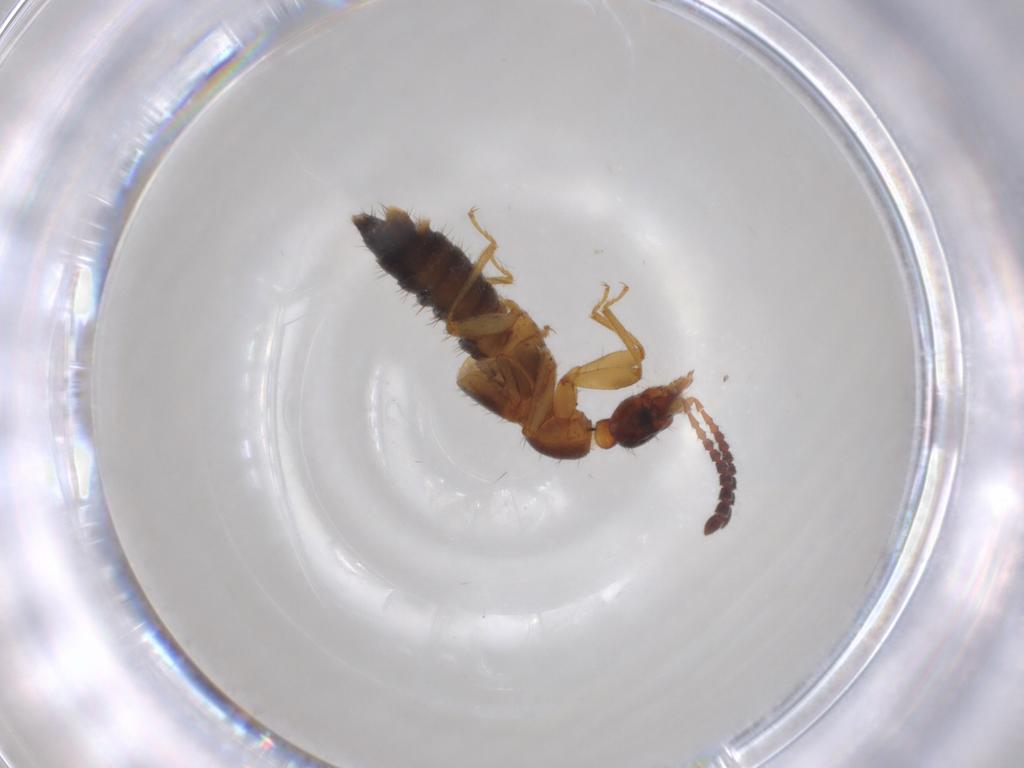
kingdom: Animalia
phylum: Arthropoda
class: Insecta
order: Coleoptera
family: Staphylinidae
